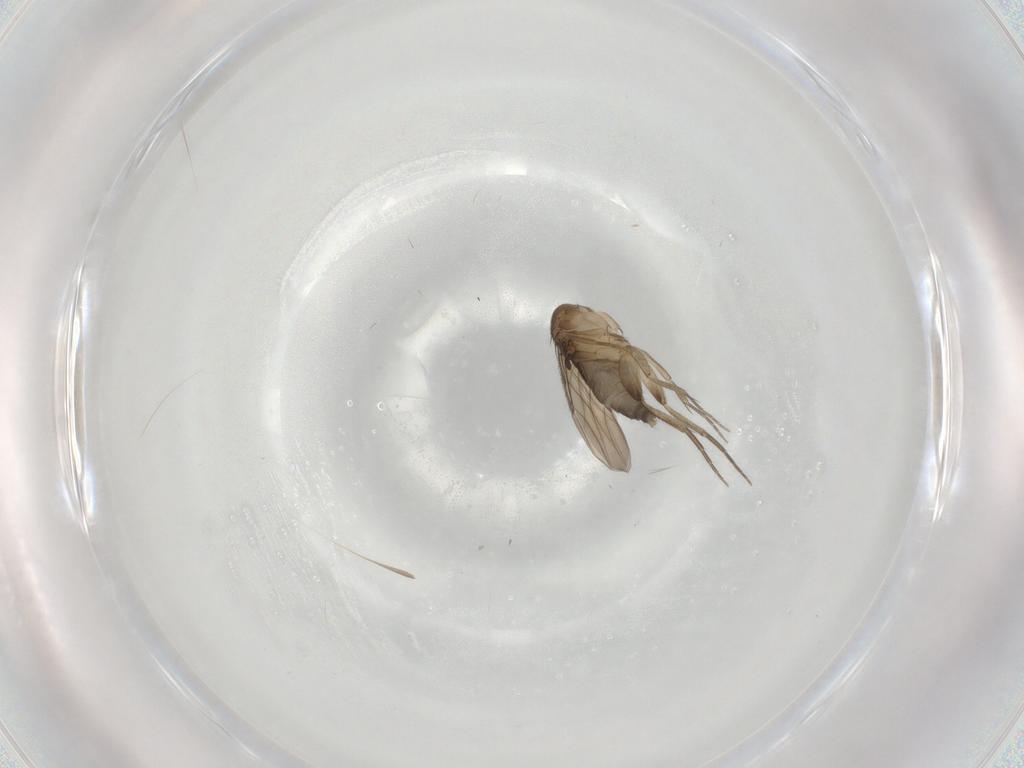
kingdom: Animalia
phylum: Arthropoda
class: Insecta
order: Diptera
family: Phoridae
